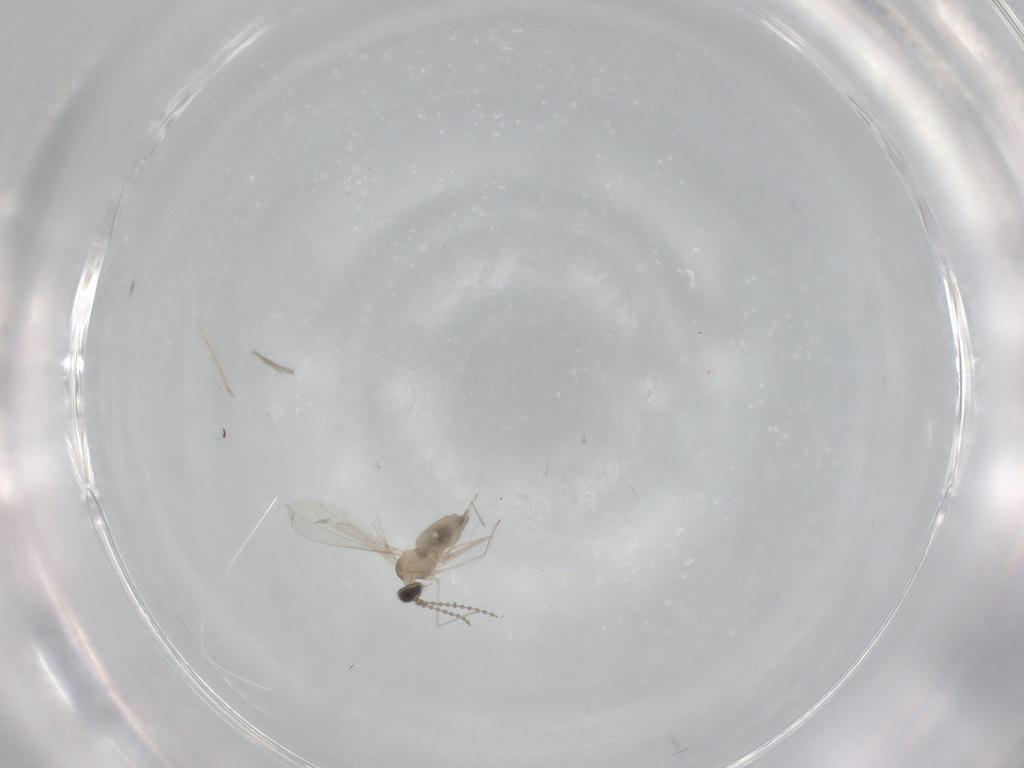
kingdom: Animalia
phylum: Arthropoda
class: Insecta
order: Diptera
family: Cecidomyiidae
